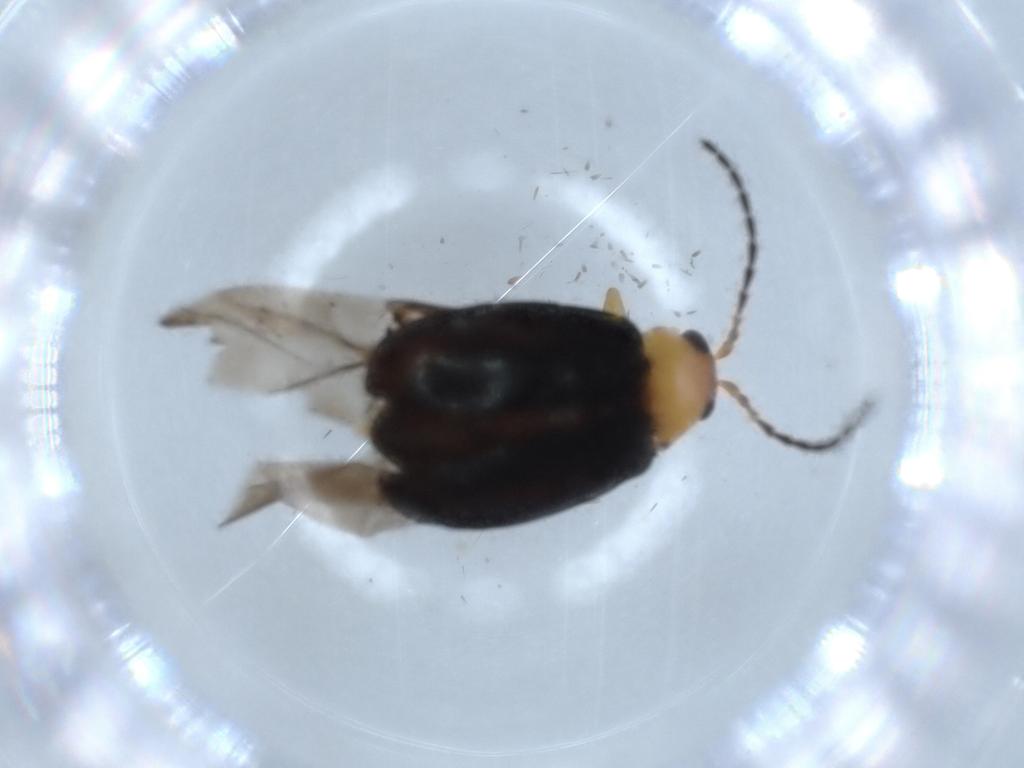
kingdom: Animalia
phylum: Arthropoda
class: Insecta
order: Coleoptera
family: Chrysomelidae
